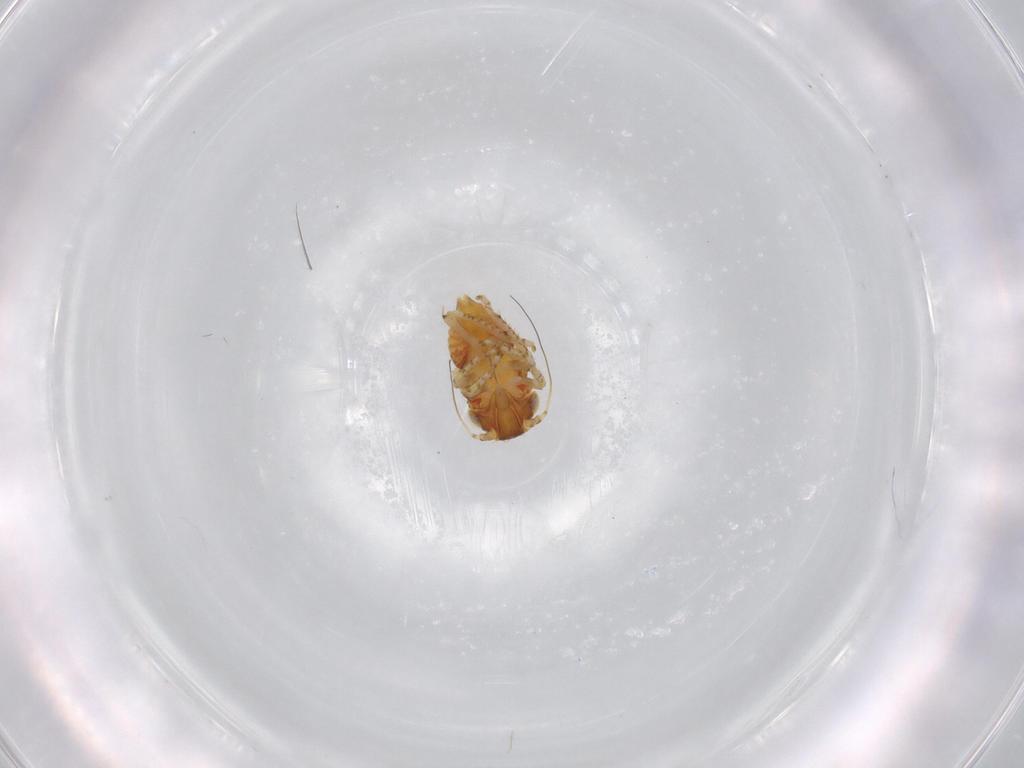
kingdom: Animalia
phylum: Arthropoda
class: Insecta
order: Hemiptera
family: Cicadellidae
